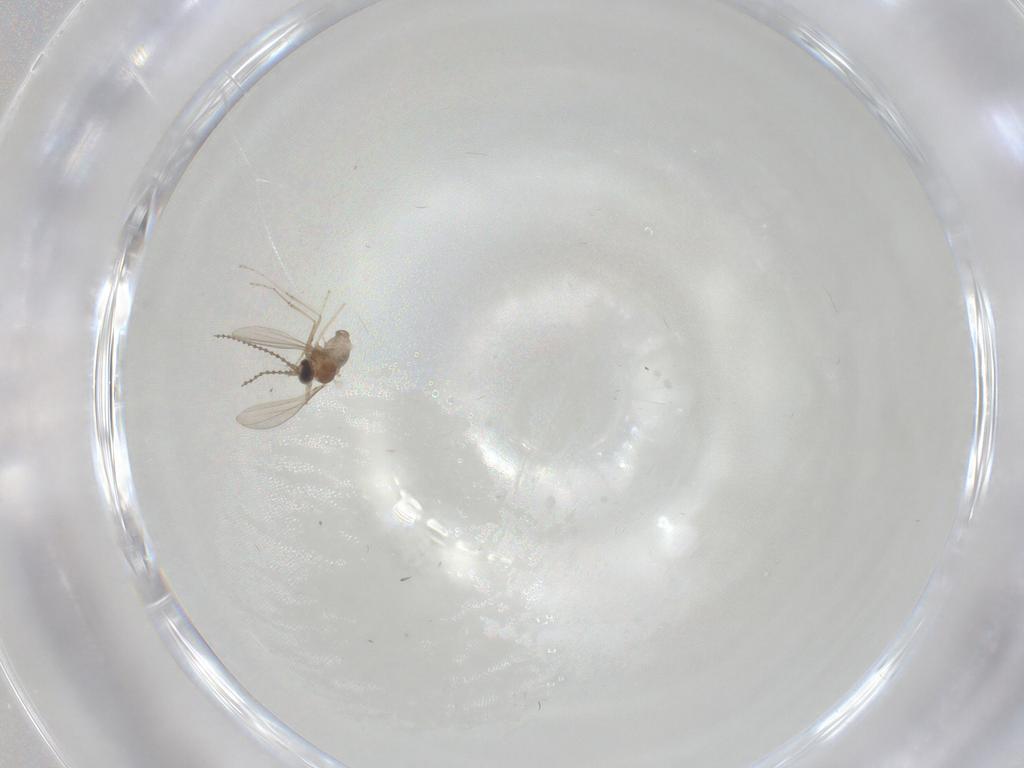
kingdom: Animalia
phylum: Arthropoda
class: Insecta
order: Diptera
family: Cecidomyiidae
